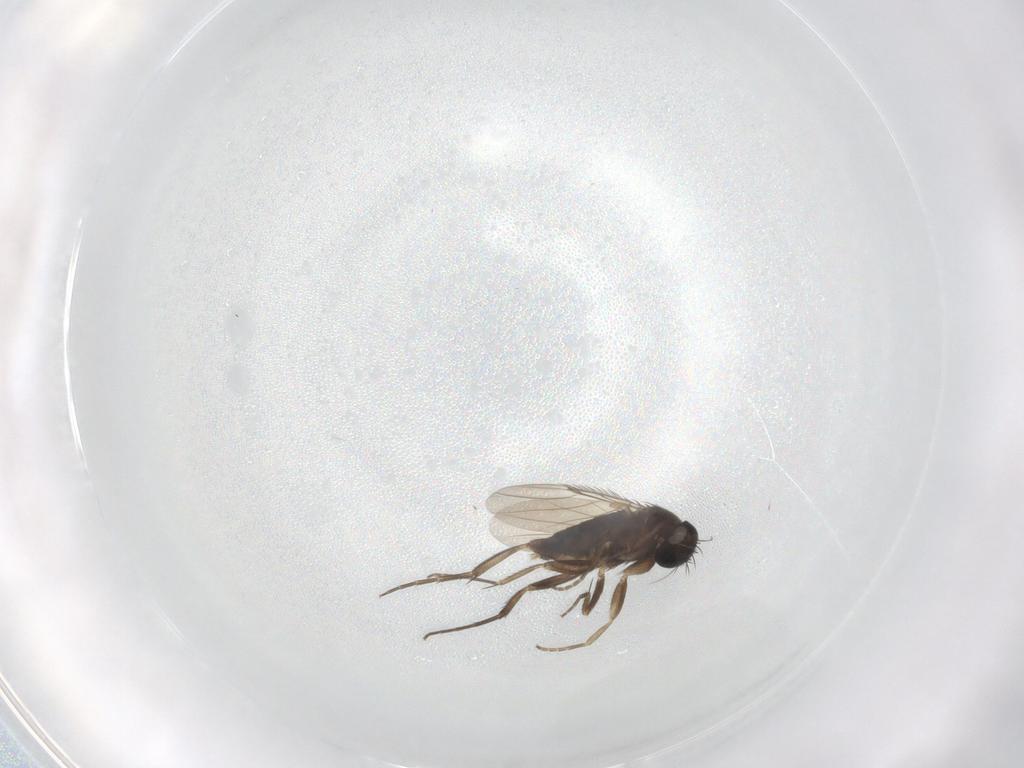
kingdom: Animalia
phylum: Arthropoda
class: Insecta
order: Diptera
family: Phoridae
